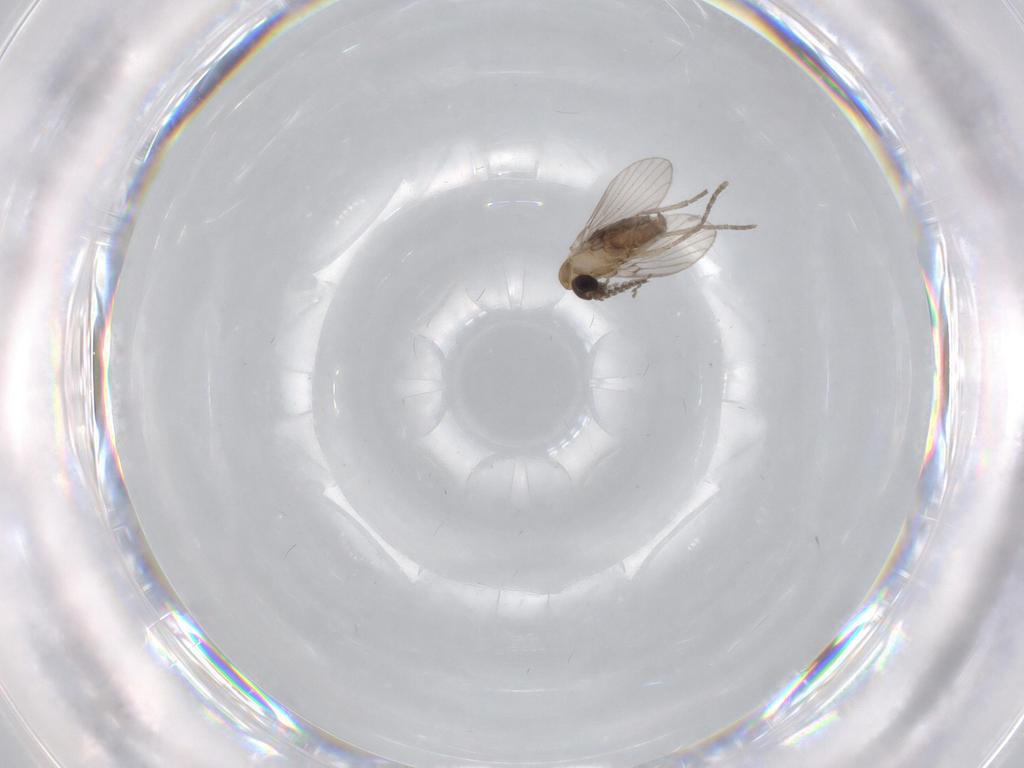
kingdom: Animalia
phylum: Arthropoda
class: Insecta
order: Diptera
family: Psychodidae
